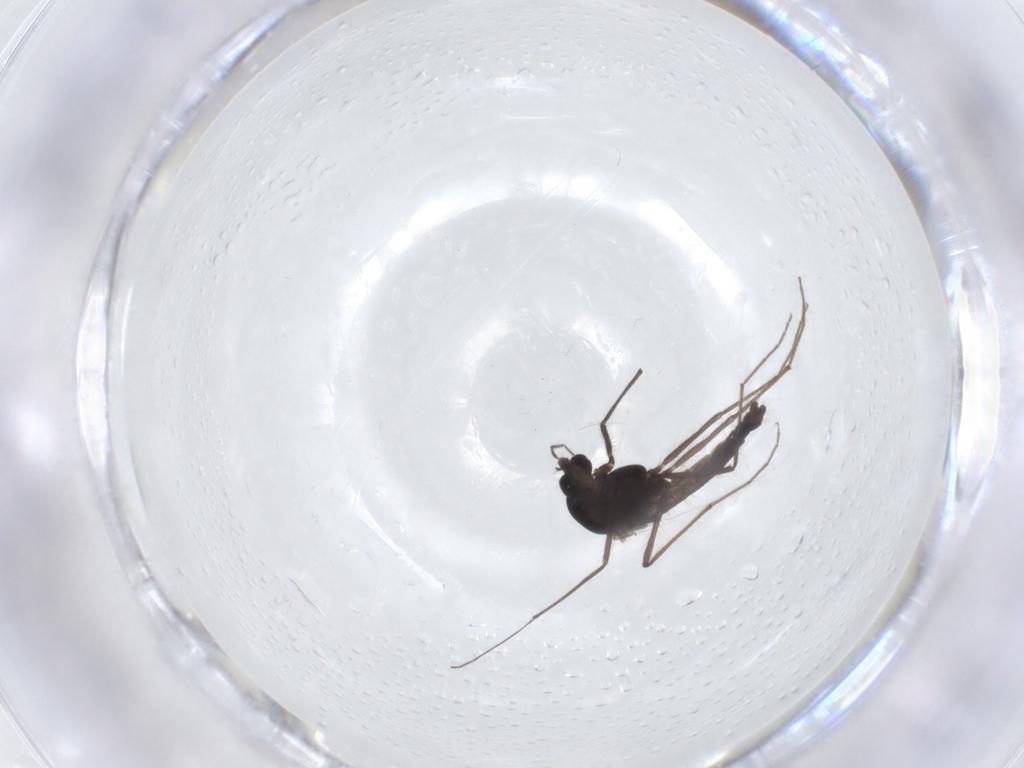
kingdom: Animalia
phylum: Arthropoda
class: Insecta
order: Diptera
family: Chironomidae
